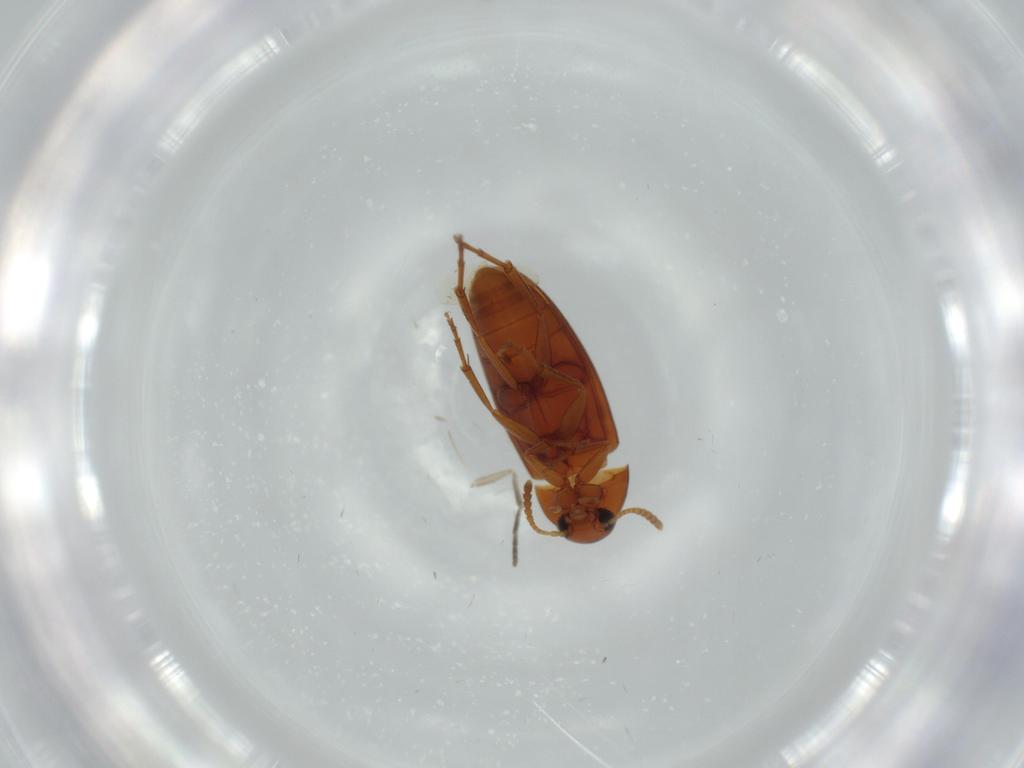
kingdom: Animalia
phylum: Arthropoda
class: Insecta
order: Coleoptera
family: Scraptiidae
